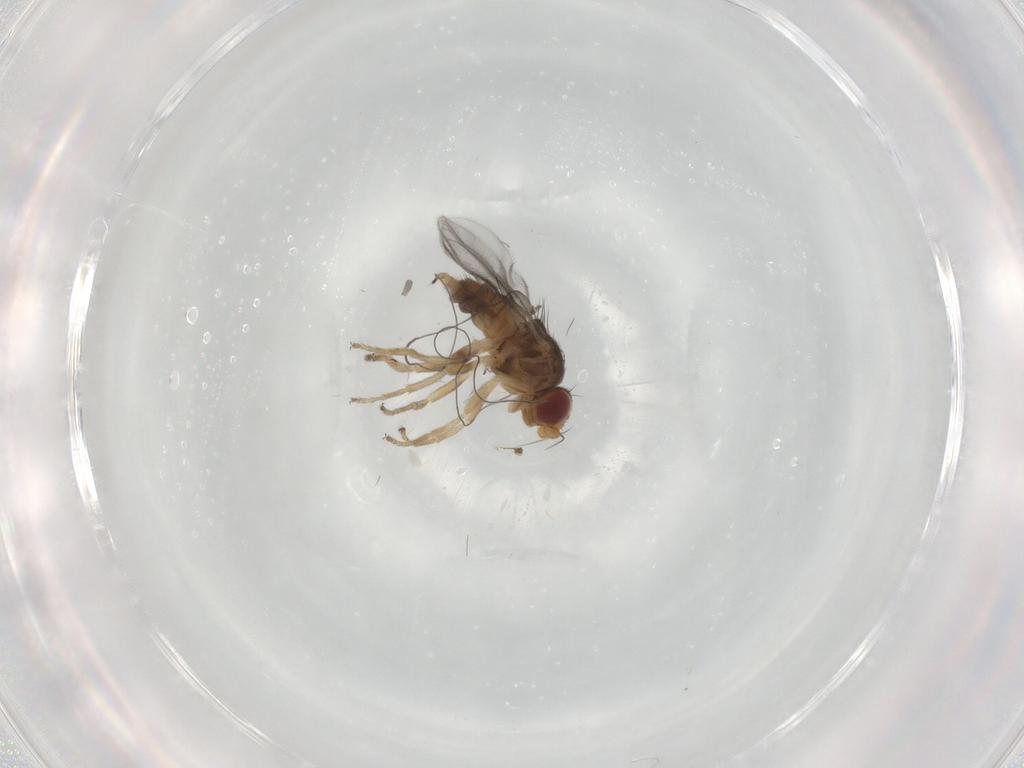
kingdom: Animalia
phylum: Arthropoda
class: Insecta
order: Diptera
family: Chloropidae
